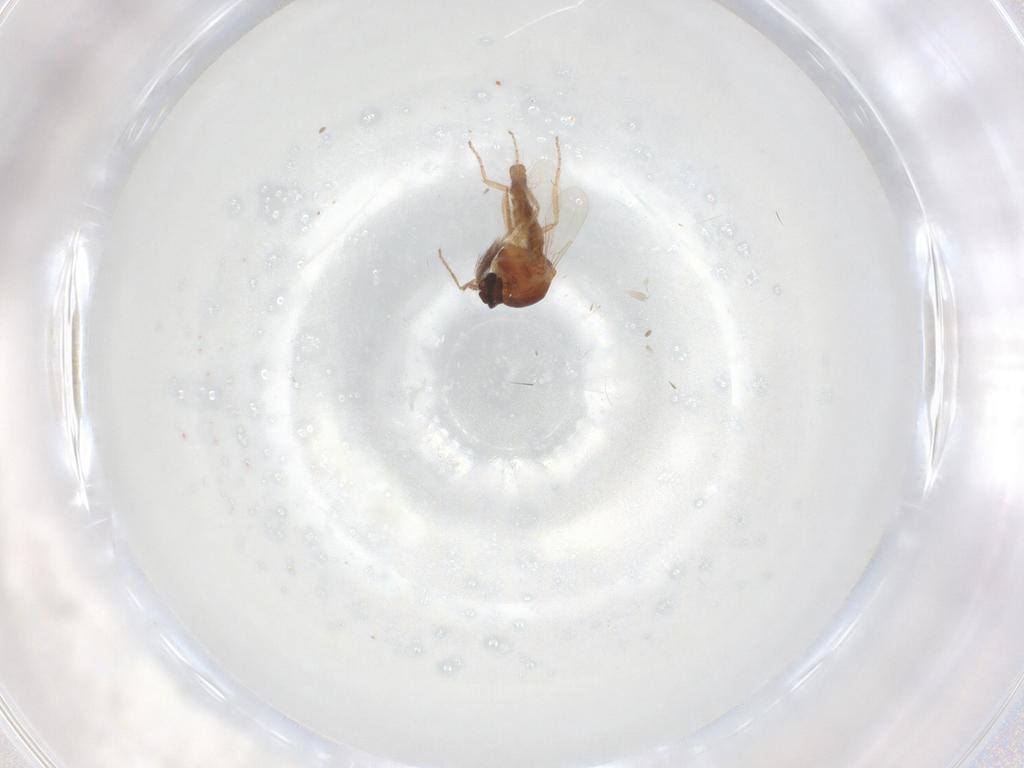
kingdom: Animalia
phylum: Arthropoda
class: Insecta
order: Diptera
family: Ceratopogonidae
